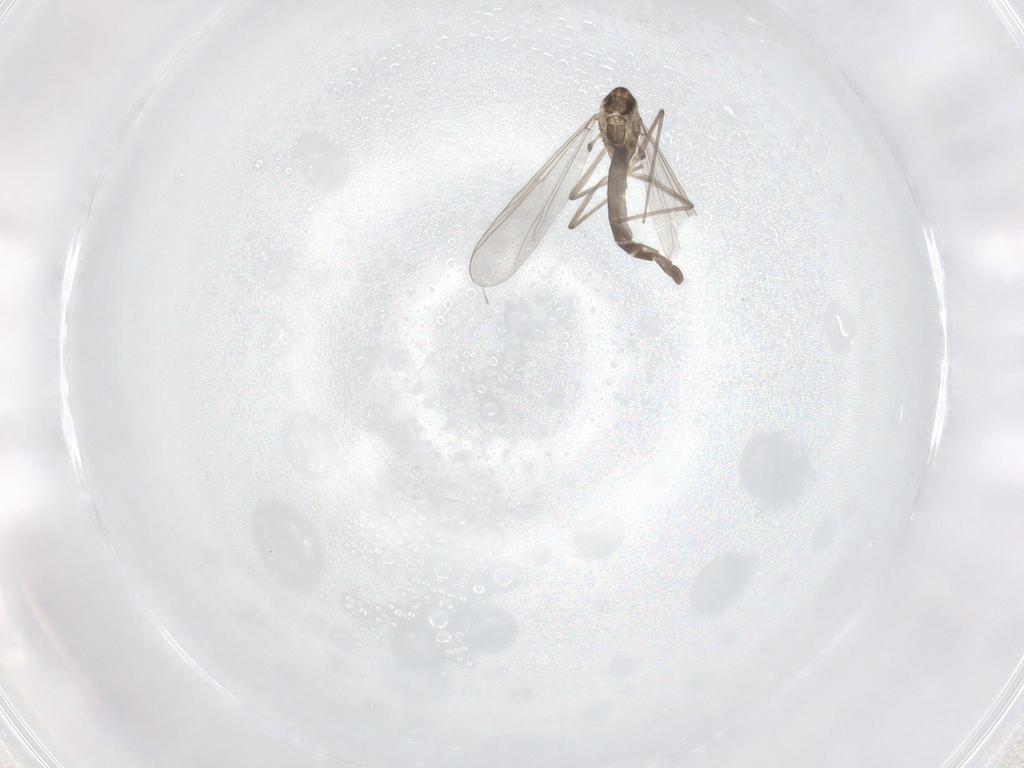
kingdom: Animalia
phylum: Arthropoda
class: Insecta
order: Diptera
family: Chironomidae
